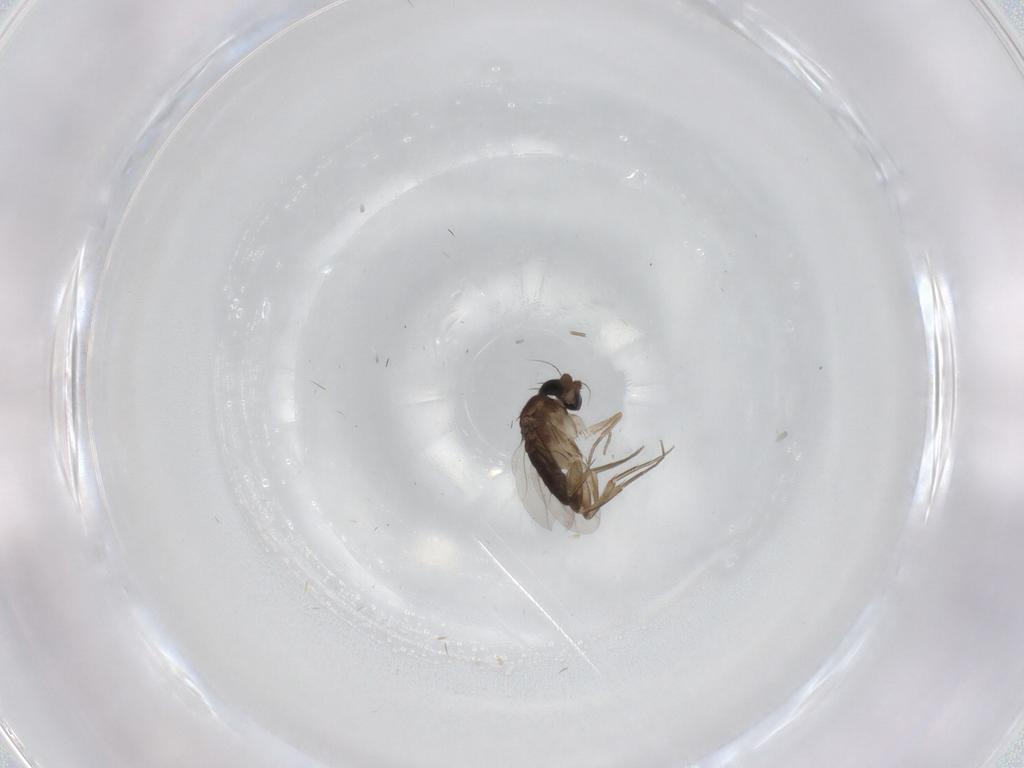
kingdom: Animalia
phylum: Arthropoda
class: Insecta
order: Diptera
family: Phoridae
